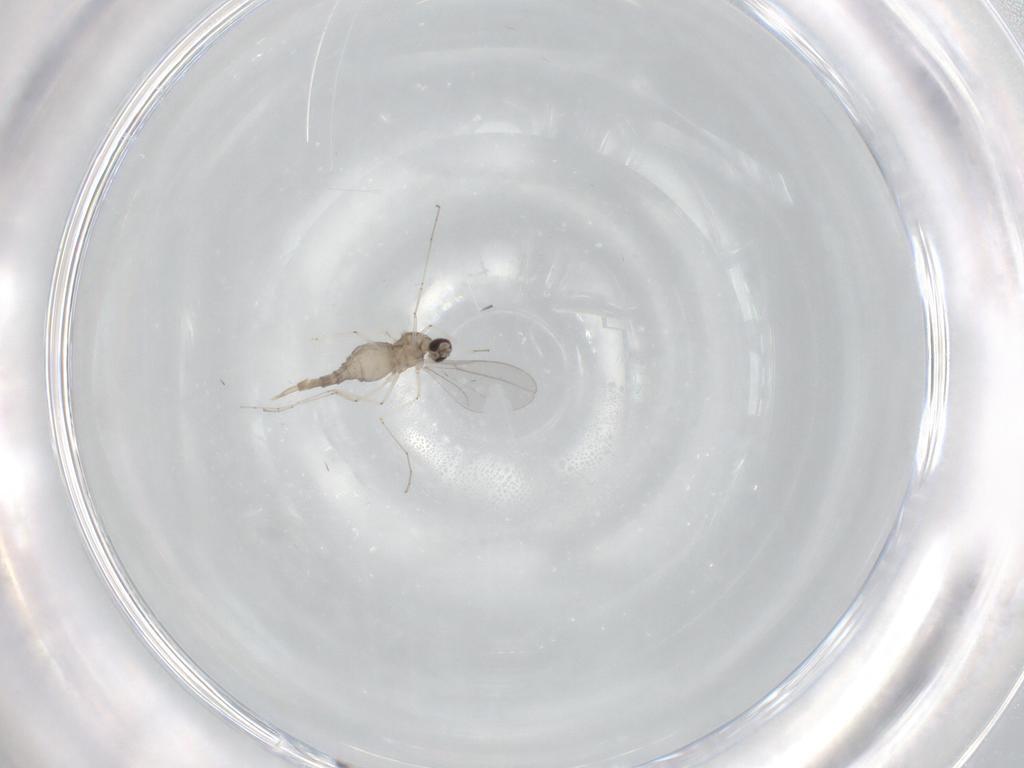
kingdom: Animalia
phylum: Arthropoda
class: Insecta
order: Diptera
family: Cecidomyiidae
